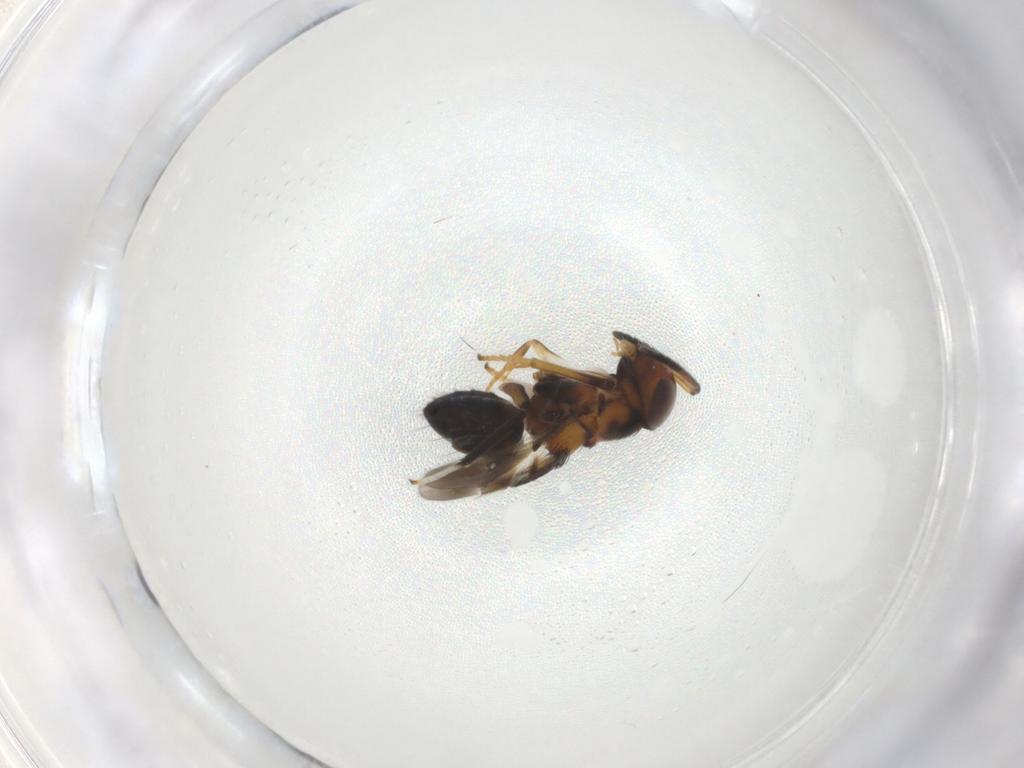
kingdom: Animalia
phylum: Arthropoda
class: Insecta
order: Hymenoptera
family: Encyrtidae
